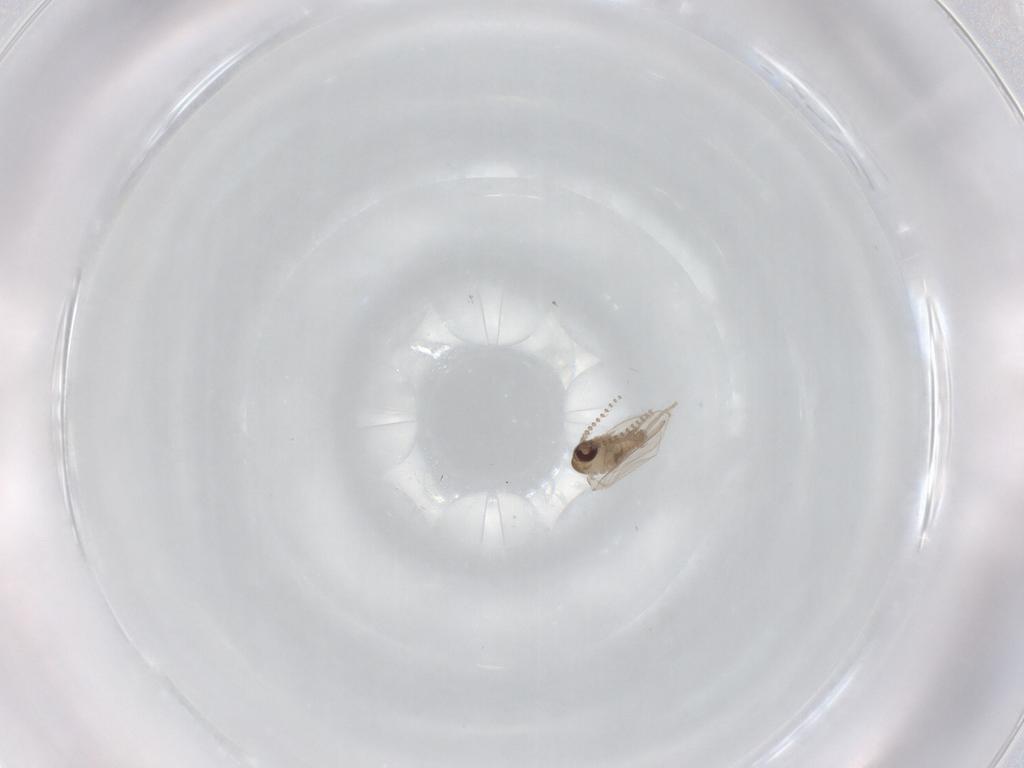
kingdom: Animalia
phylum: Arthropoda
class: Insecta
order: Diptera
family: Psychodidae
